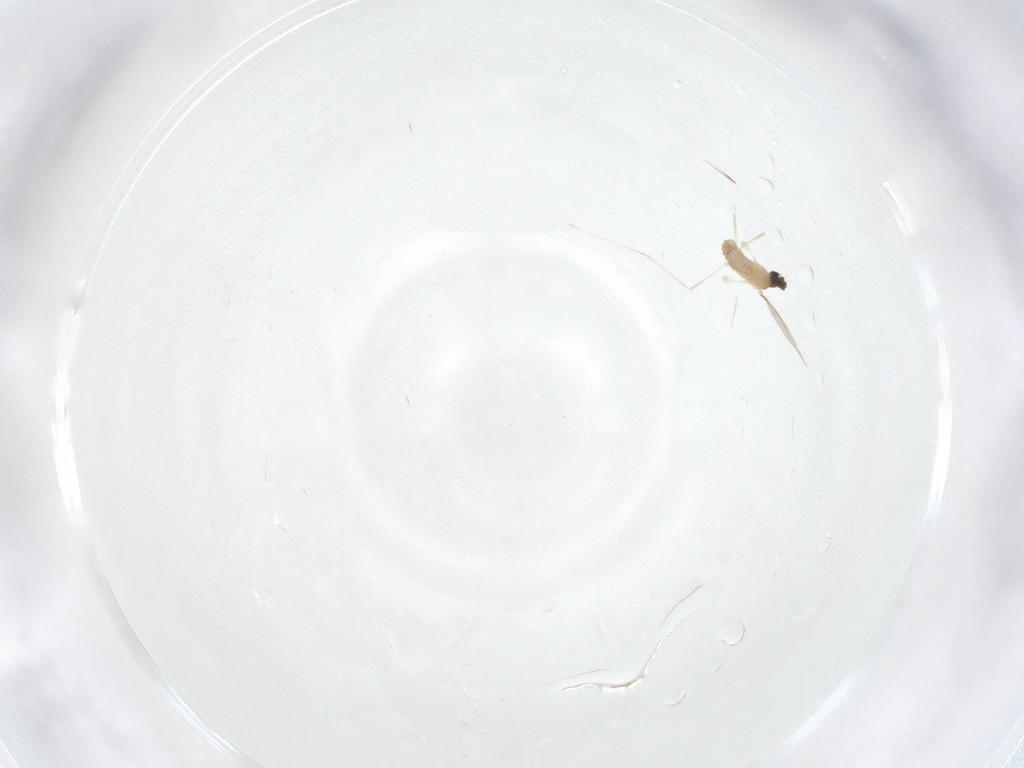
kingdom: Animalia
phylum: Arthropoda
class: Insecta
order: Diptera
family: Cecidomyiidae
